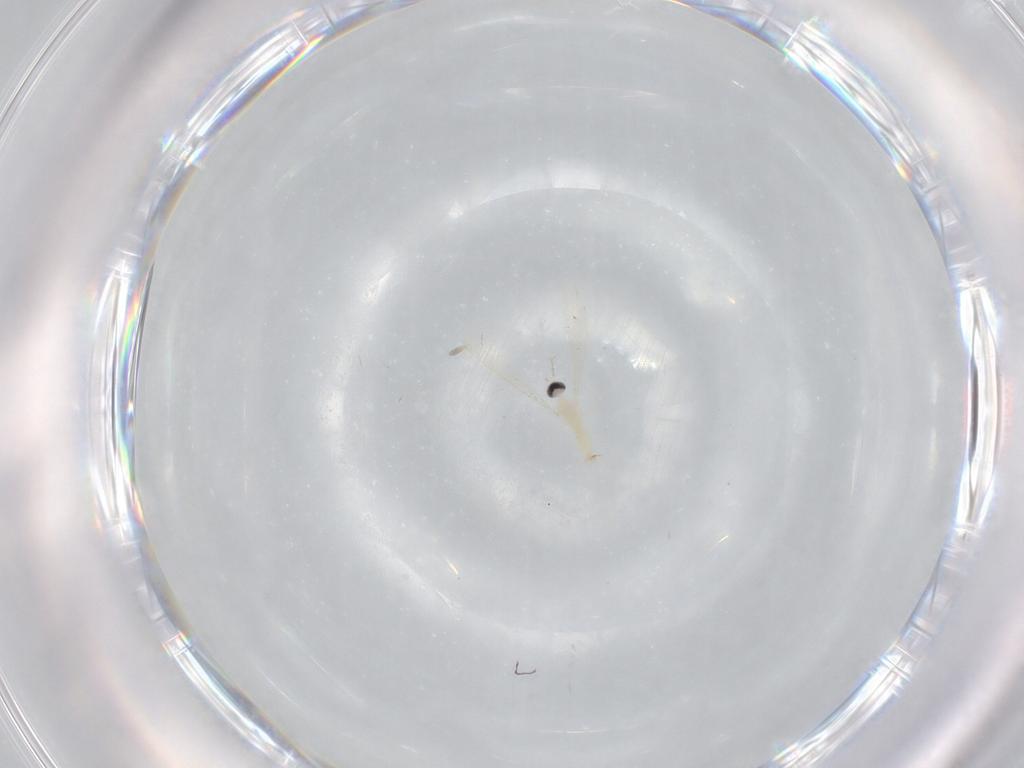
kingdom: Animalia
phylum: Arthropoda
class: Insecta
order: Diptera
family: Cecidomyiidae
